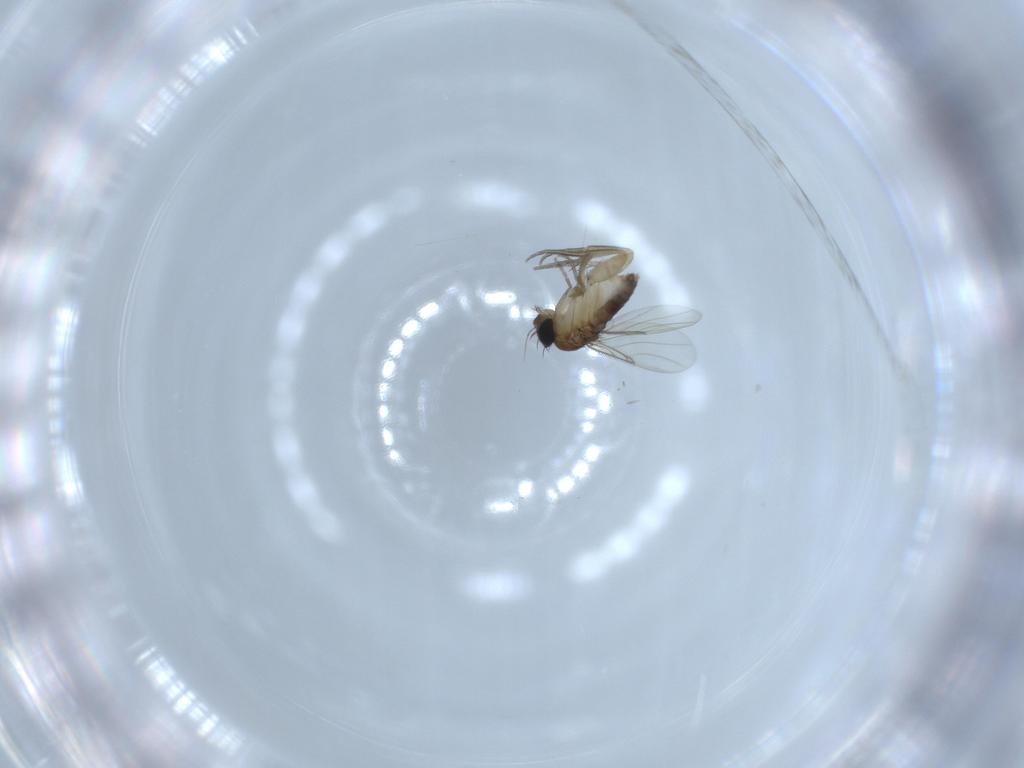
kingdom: Animalia
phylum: Arthropoda
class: Insecta
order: Diptera
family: Phoridae
